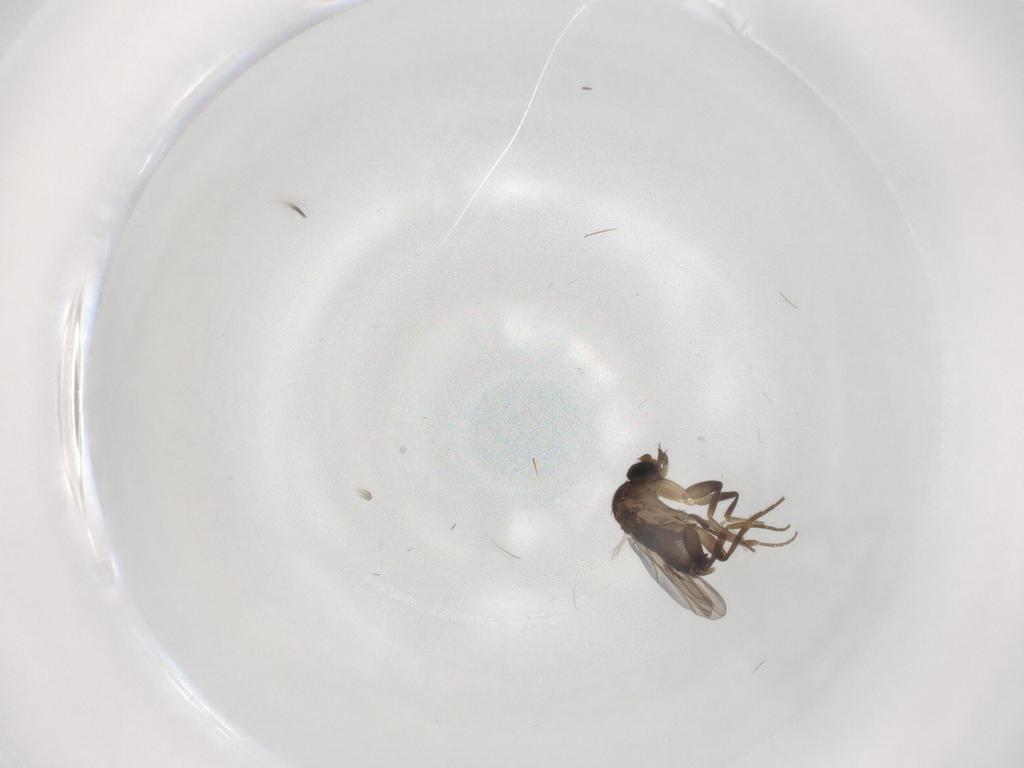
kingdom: Animalia
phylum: Arthropoda
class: Insecta
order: Diptera
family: Phoridae
